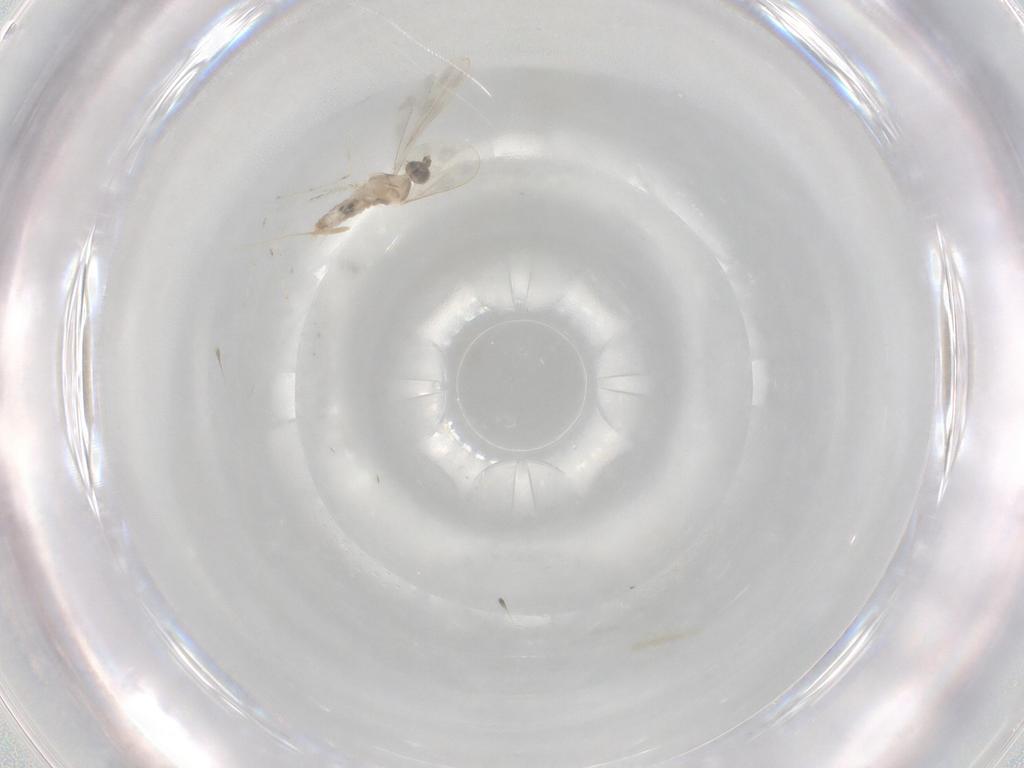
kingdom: Animalia
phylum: Arthropoda
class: Insecta
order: Diptera
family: Cecidomyiidae
